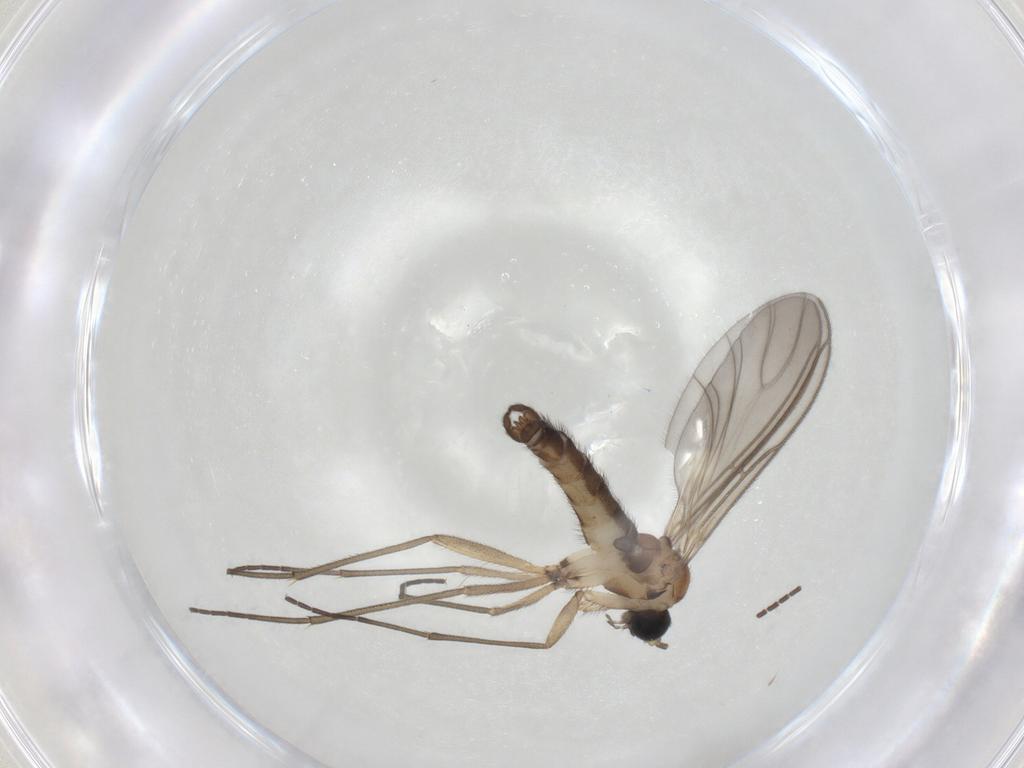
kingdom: Animalia
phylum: Arthropoda
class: Insecta
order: Diptera
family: Sciaridae
